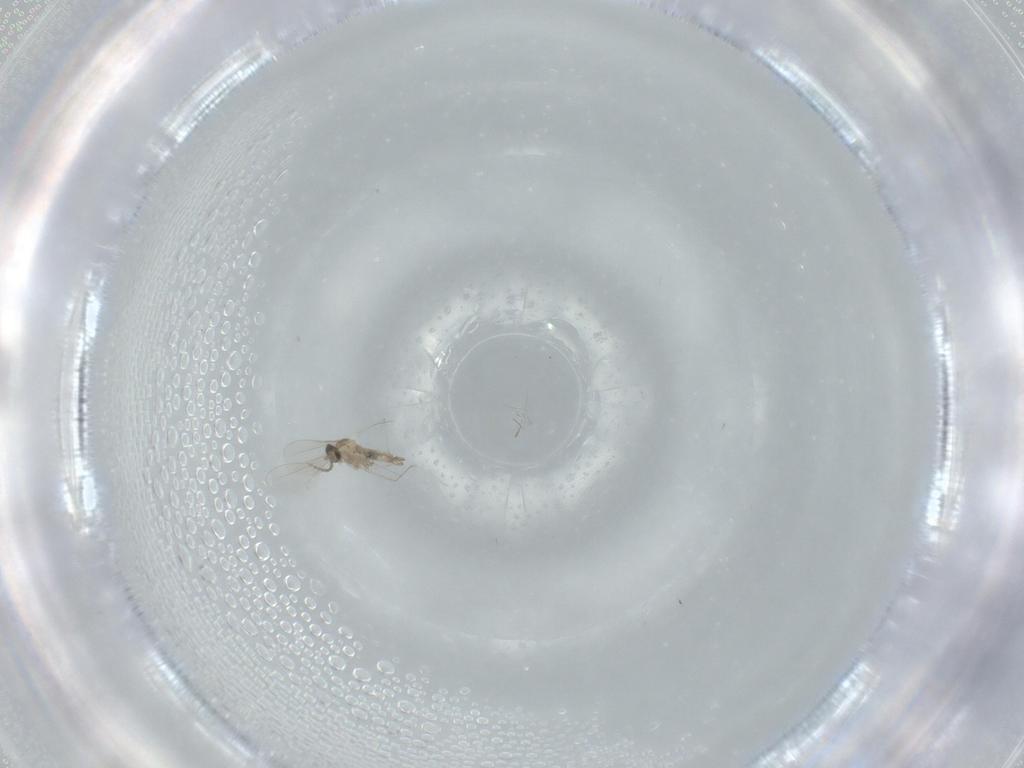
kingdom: Animalia
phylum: Arthropoda
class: Insecta
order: Diptera
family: Cecidomyiidae
